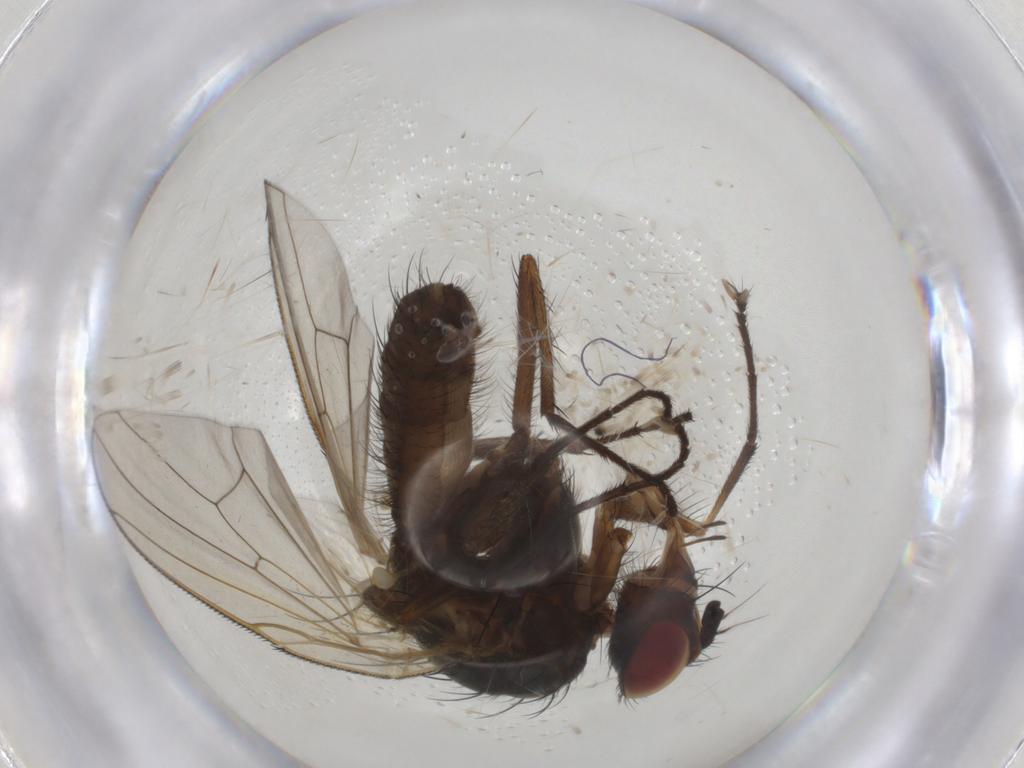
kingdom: Animalia
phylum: Arthropoda
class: Insecta
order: Diptera
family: Anthomyiidae
